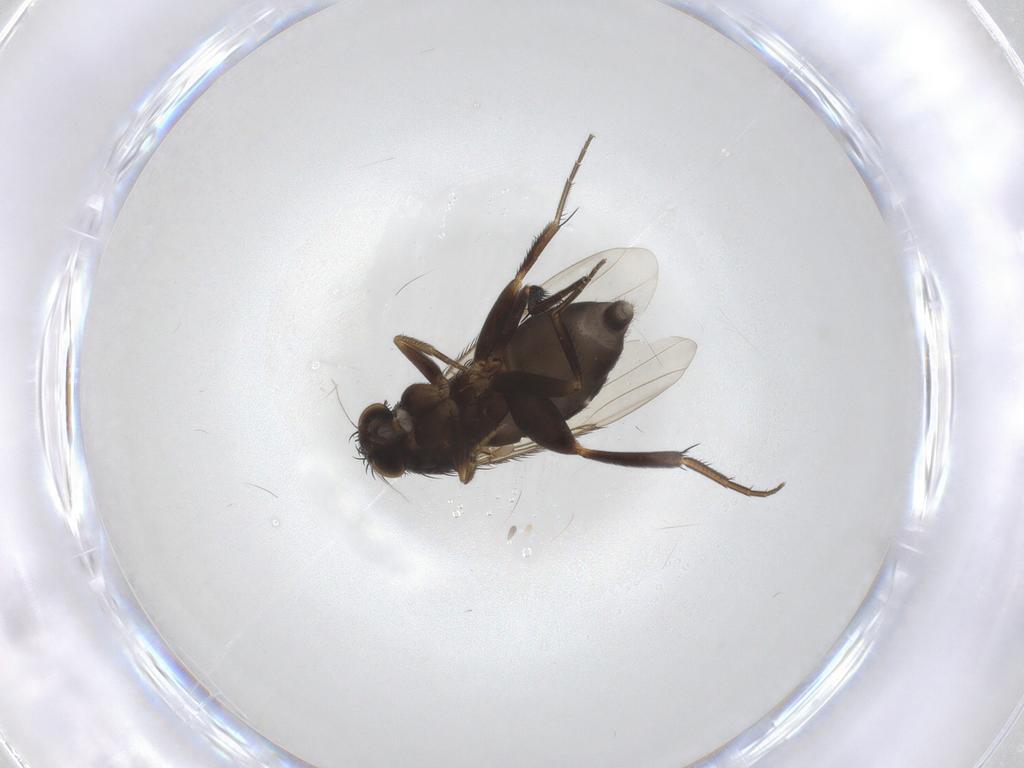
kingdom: Animalia
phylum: Arthropoda
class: Insecta
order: Diptera
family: Phoridae
